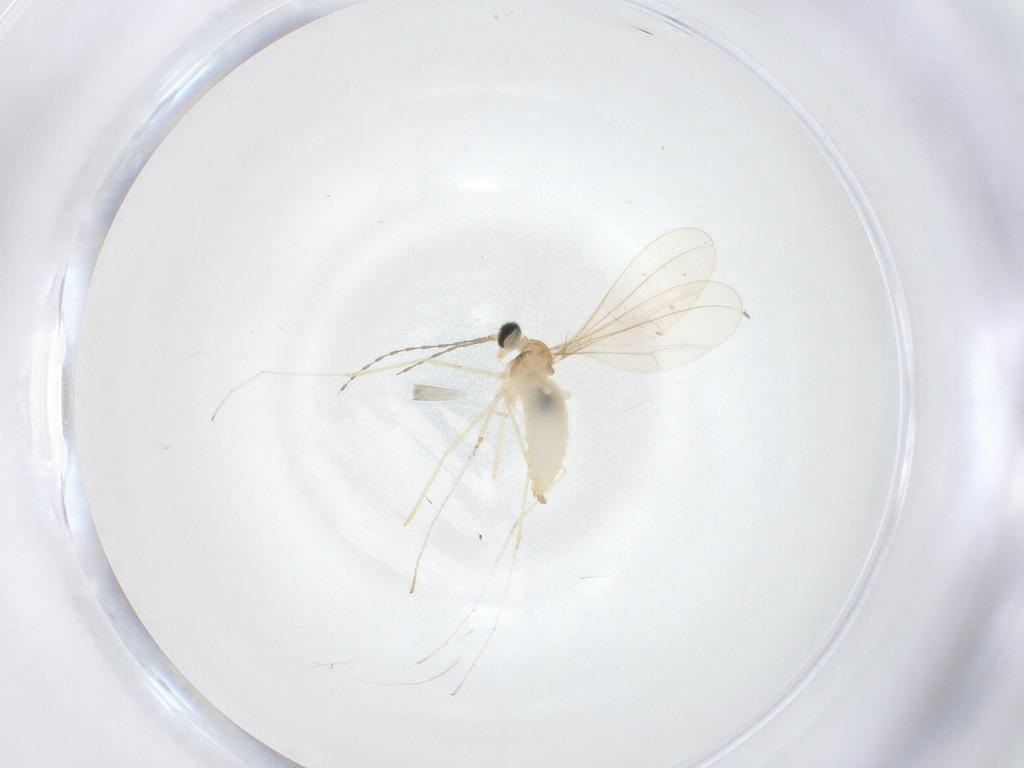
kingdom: Animalia
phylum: Arthropoda
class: Insecta
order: Diptera
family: Cecidomyiidae
